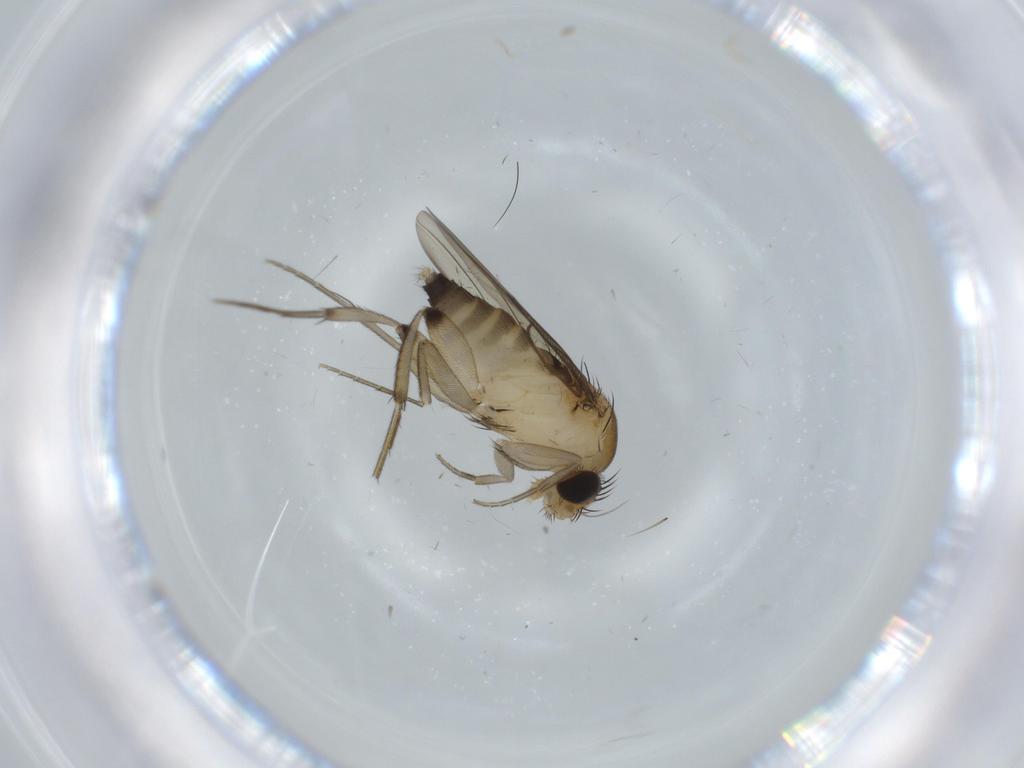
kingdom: Animalia
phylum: Arthropoda
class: Insecta
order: Diptera
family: Phoridae
